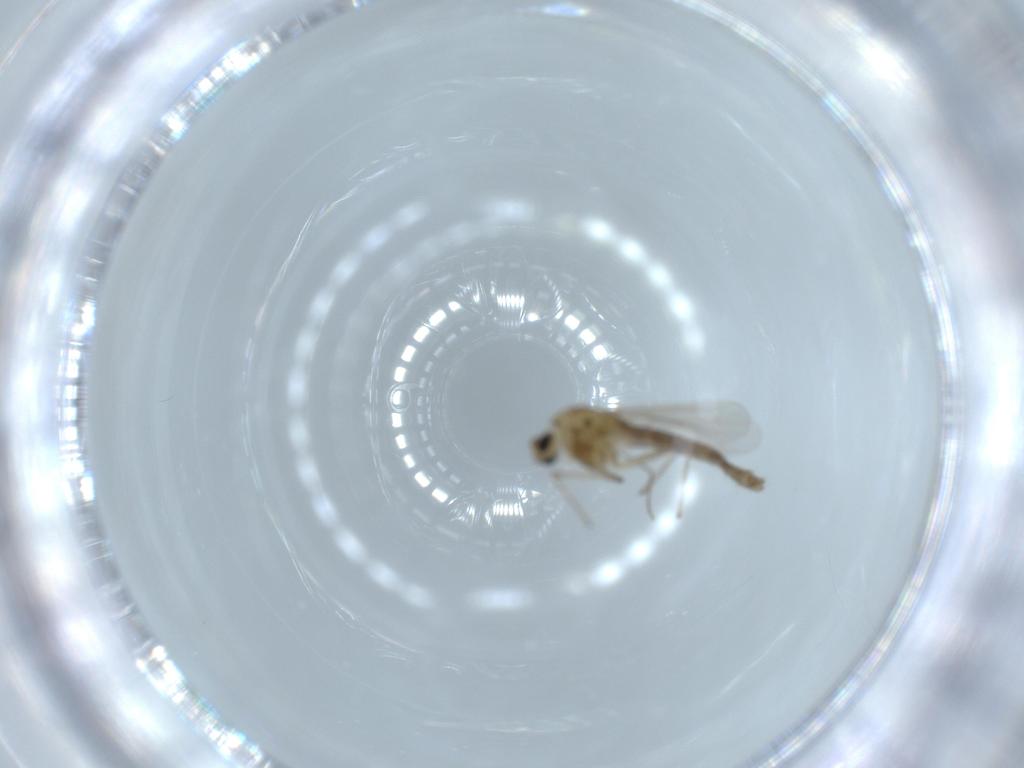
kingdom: Animalia
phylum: Arthropoda
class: Insecta
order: Diptera
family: Chironomidae
